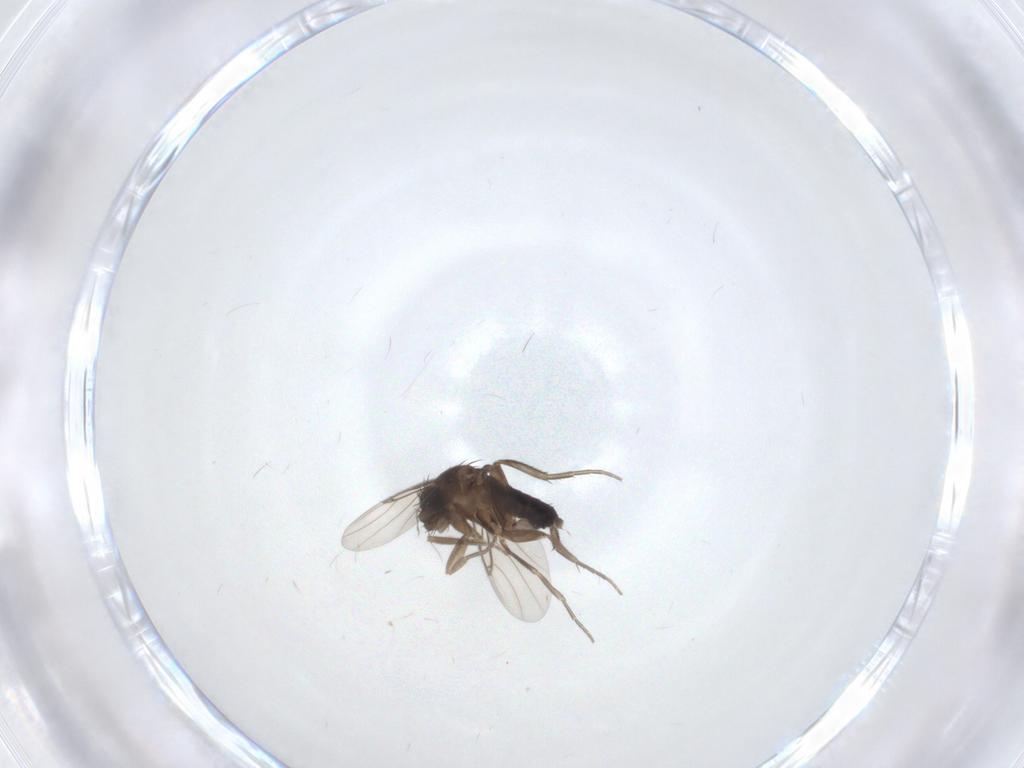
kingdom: Animalia
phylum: Arthropoda
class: Insecta
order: Diptera
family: Phoridae
